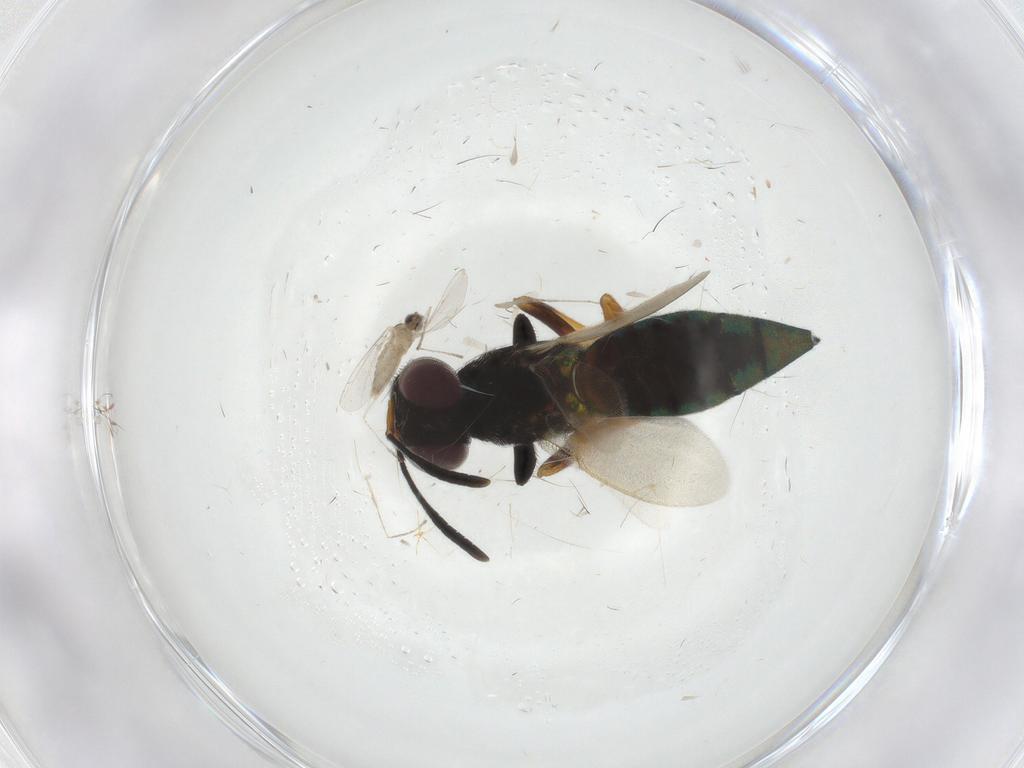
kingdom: Animalia
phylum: Arthropoda
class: Insecta
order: Diptera
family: Cecidomyiidae
